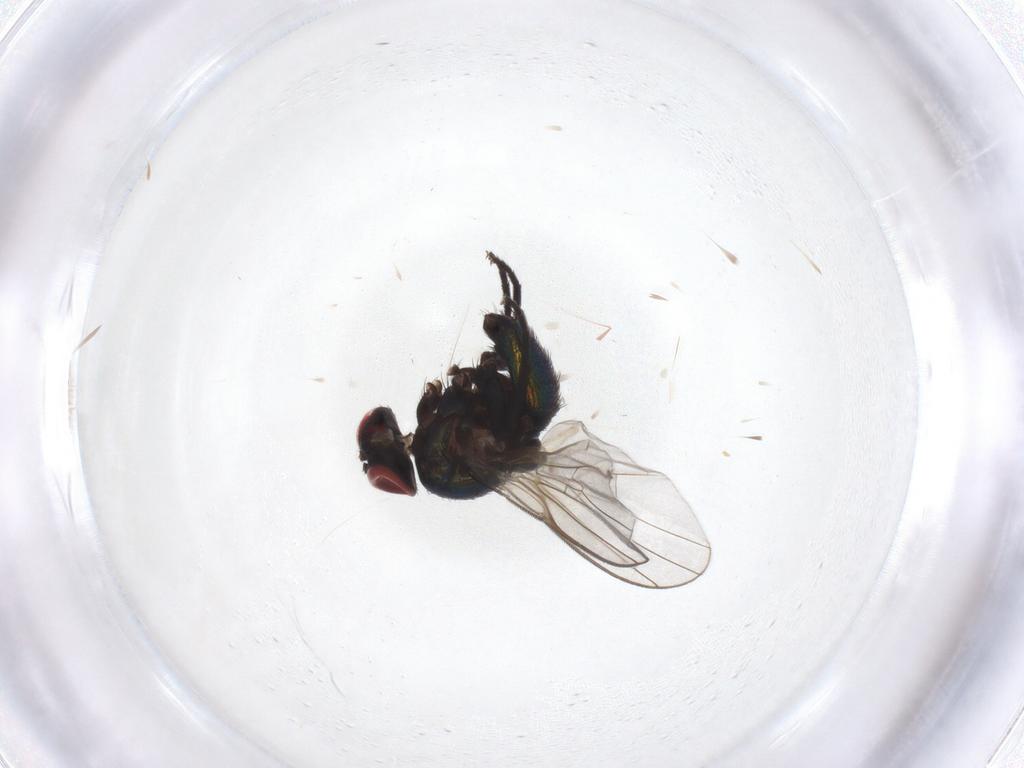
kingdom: Animalia
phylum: Arthropoda
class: Insecta
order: Diptera
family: Agromyzidae
